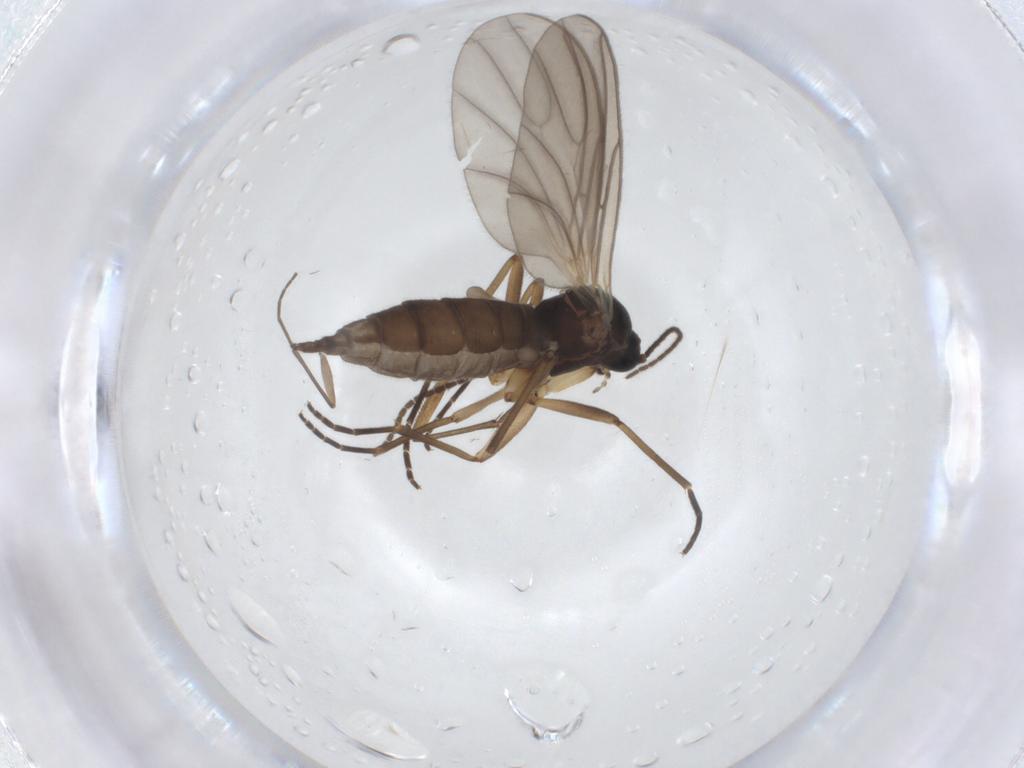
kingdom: Animalia
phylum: Arthropoda
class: Insecta
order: Diptera
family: Sciaridae
